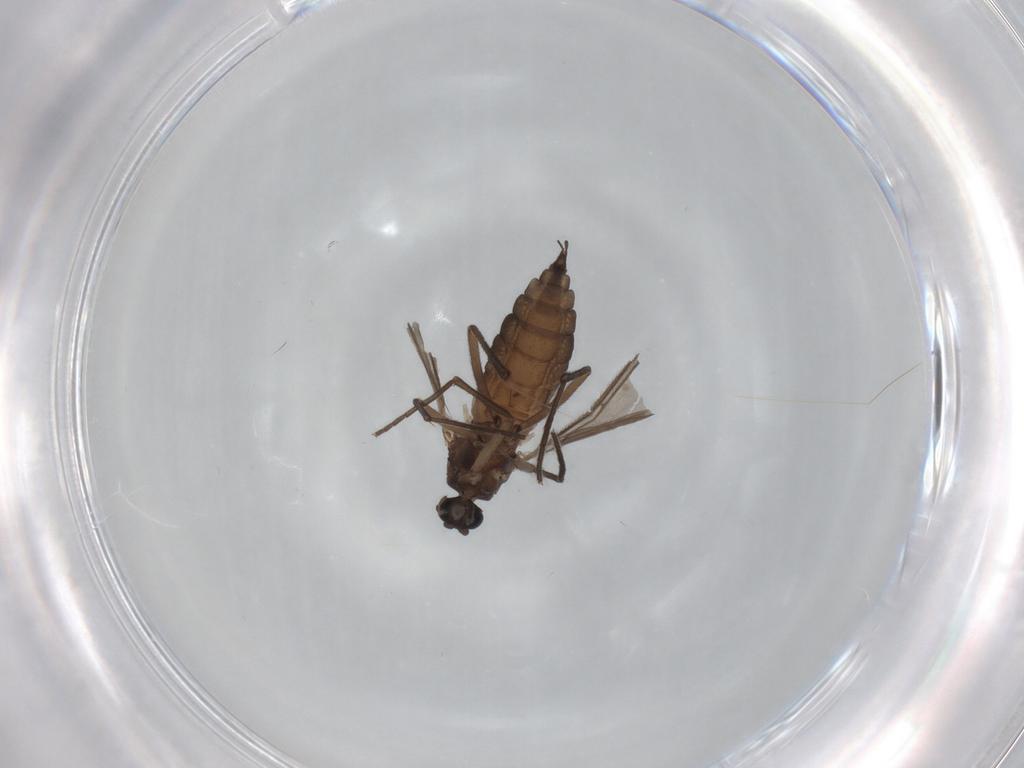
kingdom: Animalia
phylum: Arthropoda
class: Insecta
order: Diptera
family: Sciaridae
